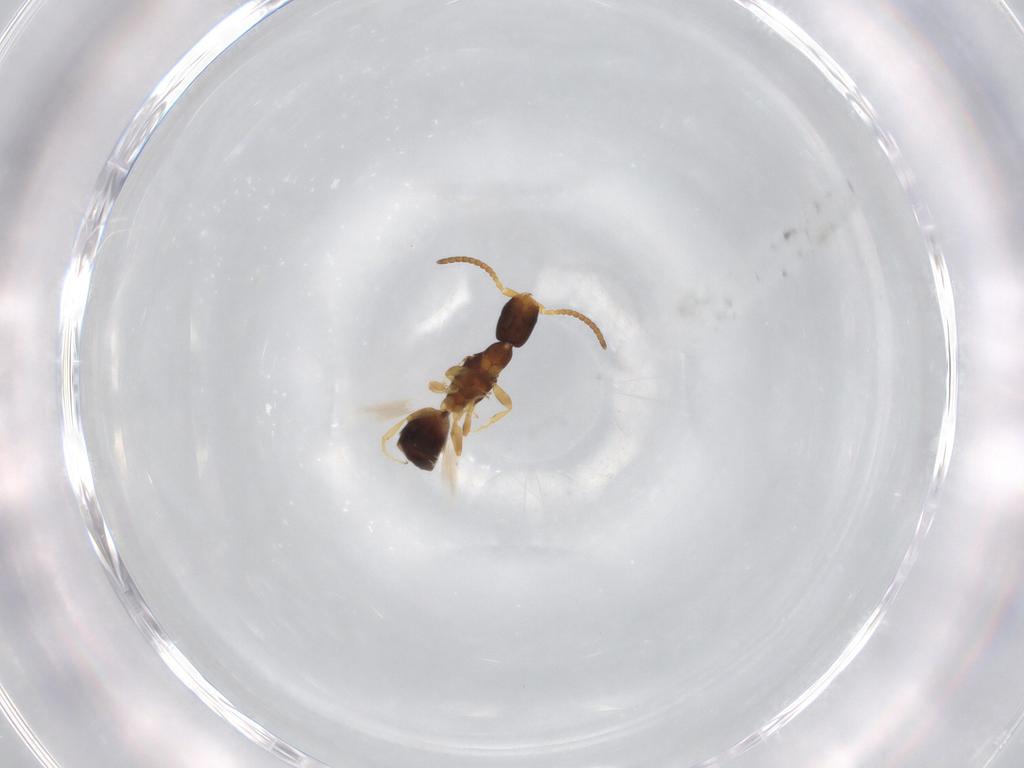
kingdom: Animalia
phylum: Arthropoda
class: Insecta
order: Hymenoptera
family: Bethylidae
